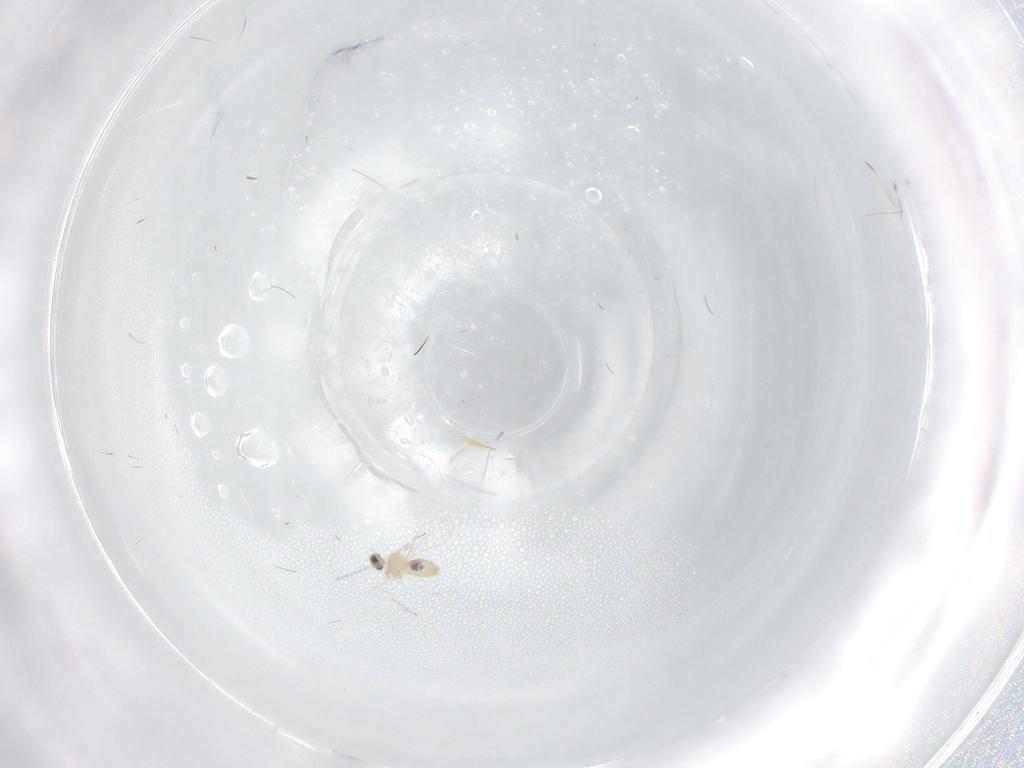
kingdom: Animalia
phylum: Arthropoda
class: Insecta
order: Diptera
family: Cecidomyiidae
